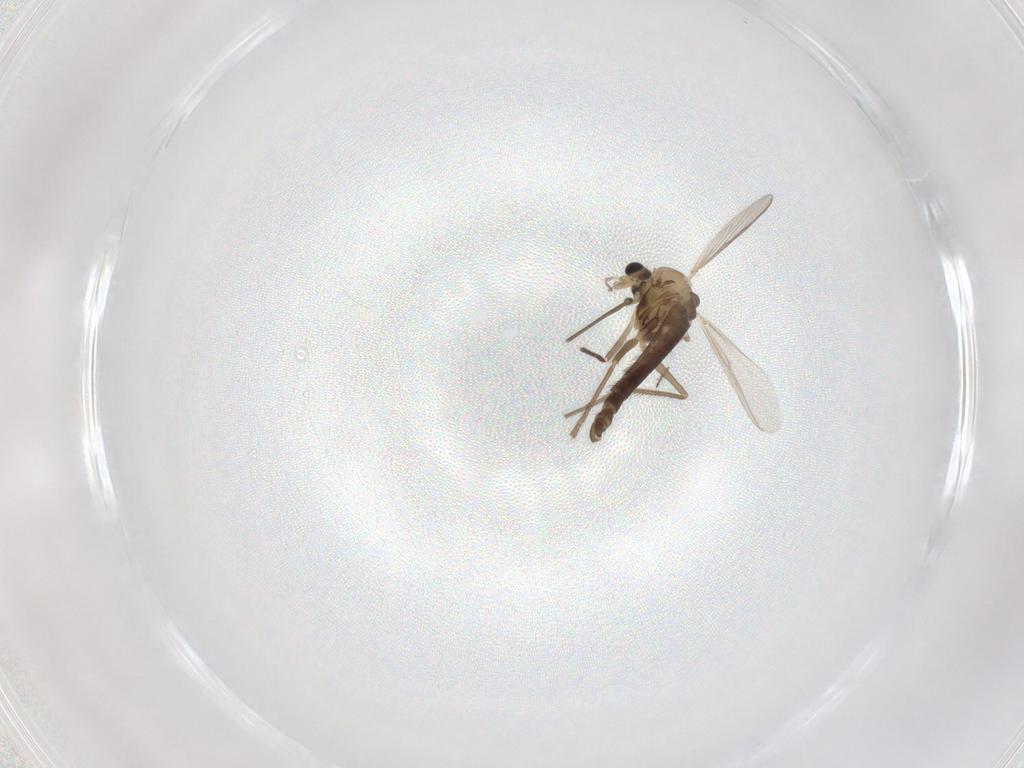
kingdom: Animalia
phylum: Arthropoda
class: Insecta
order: Diptera
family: Chironomidae
